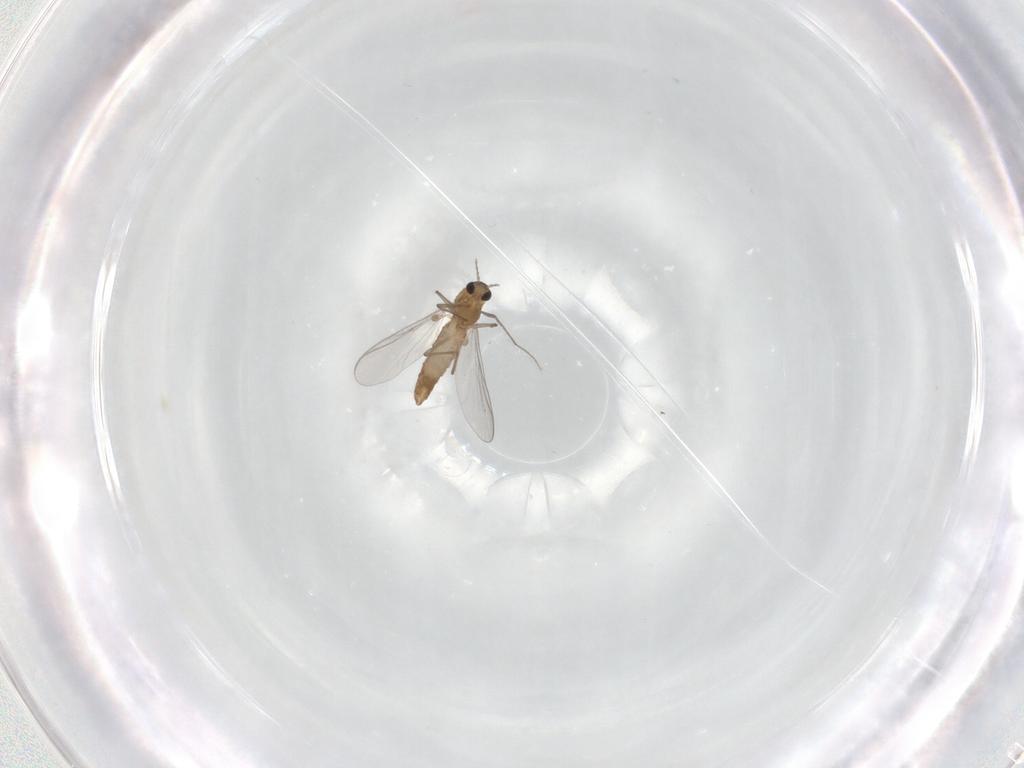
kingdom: Animalia
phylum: Arthropoda
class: Insecta
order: Diptera
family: Chironomidae
